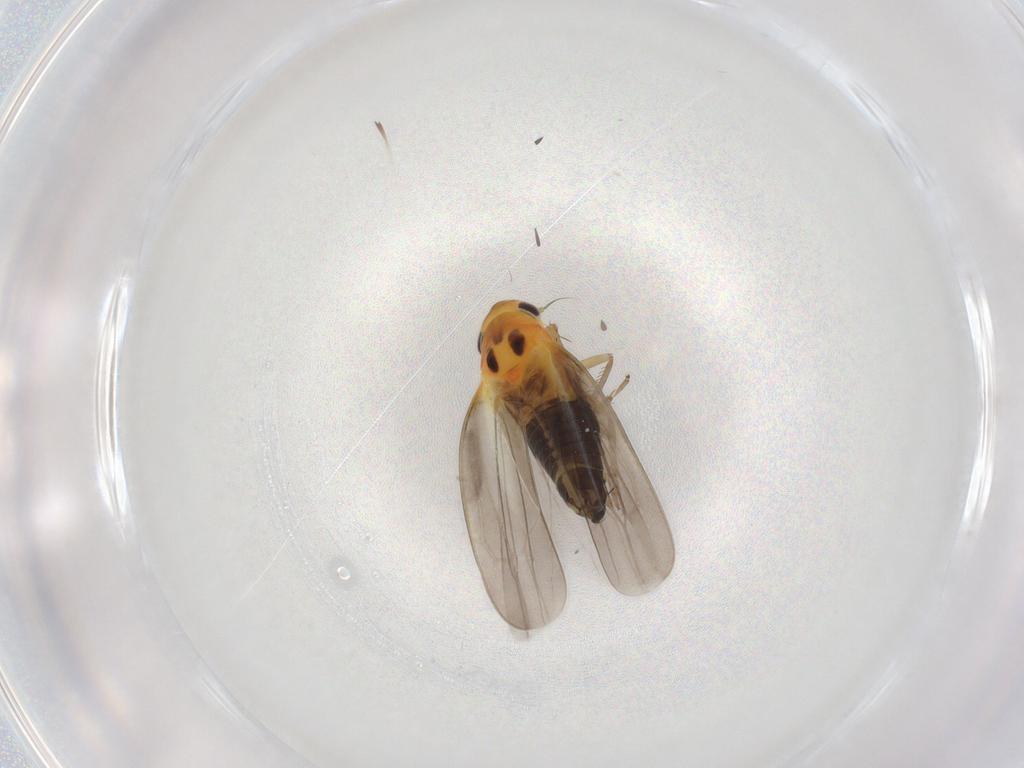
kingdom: Animalia
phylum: Arthropoda
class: Insecta
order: Hemiptera
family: Cicadellidae
